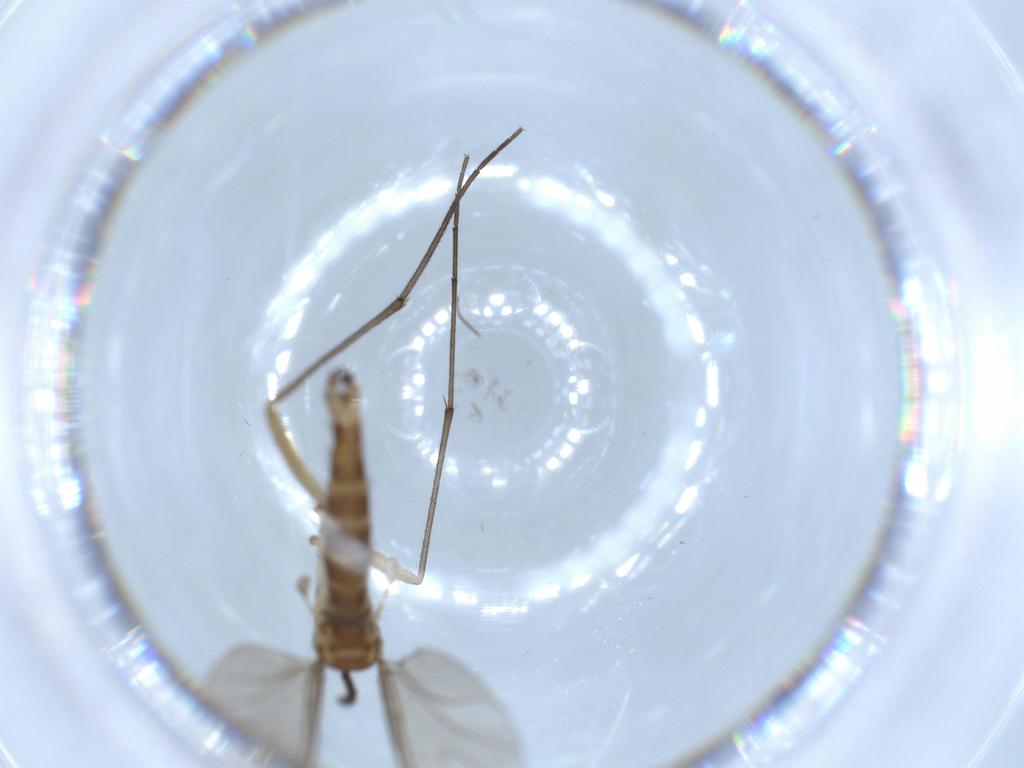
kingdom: Animalia
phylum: Arthropoda
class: Insecta
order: Diptera
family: Sciaridae
